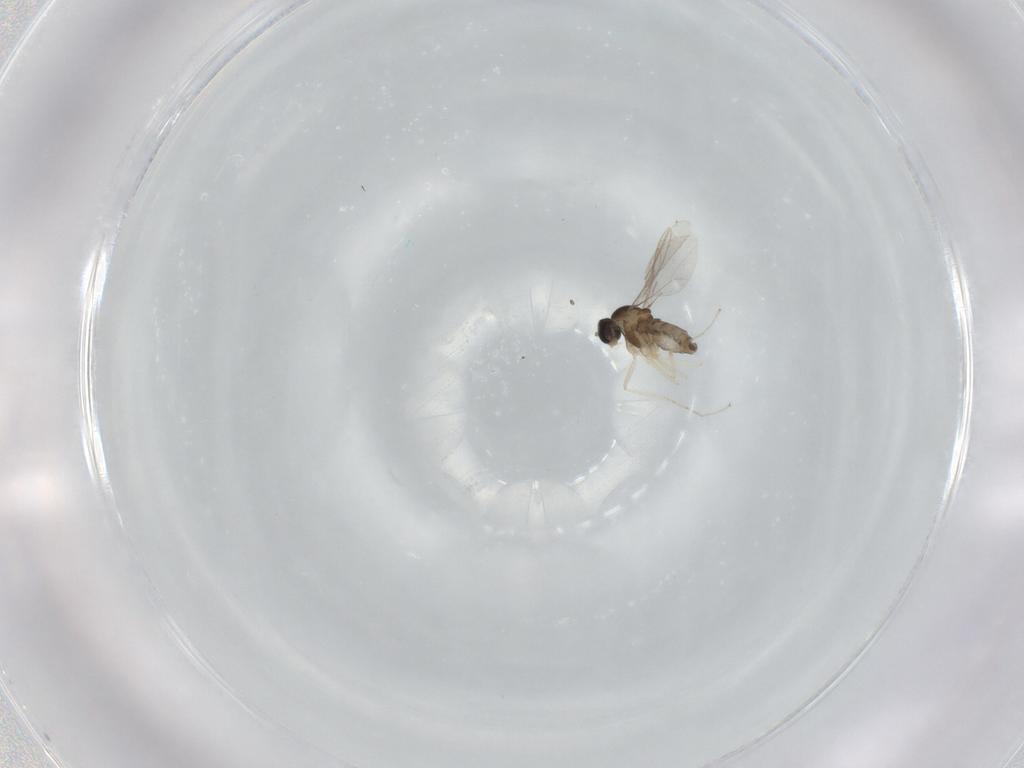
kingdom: Animalia
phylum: Arthropoda
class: Insecta
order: Diptera
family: Cecidomyiidae
